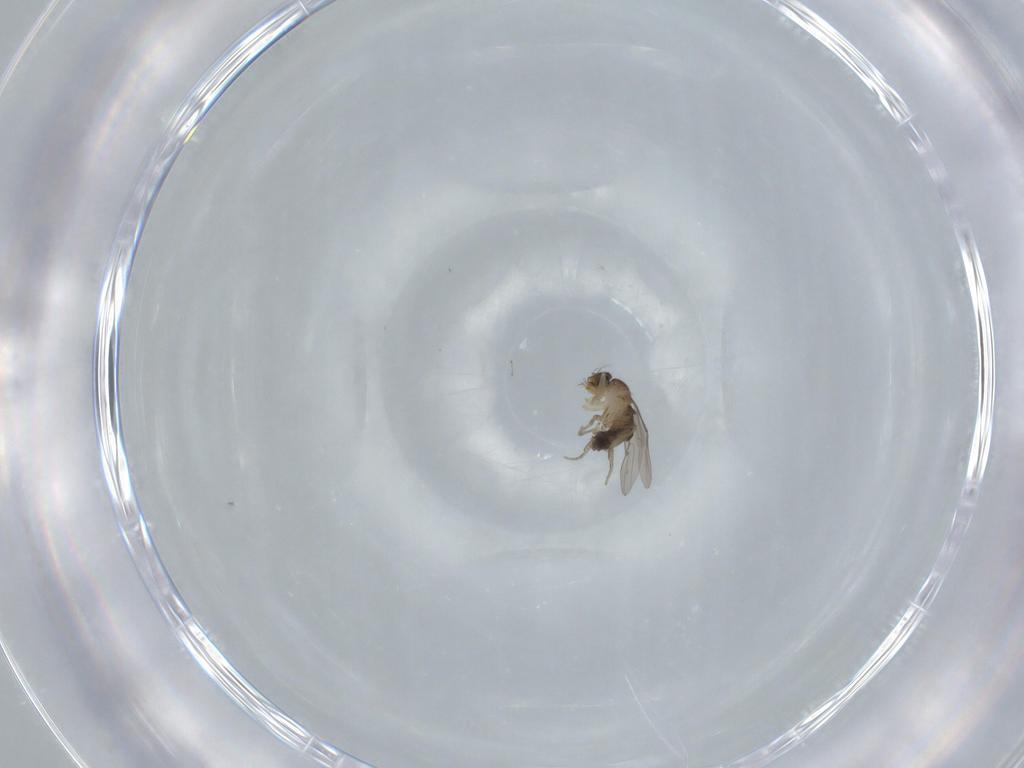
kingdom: Animalia
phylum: Arthropoda
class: Insecta
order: Diptera
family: Phoridae
